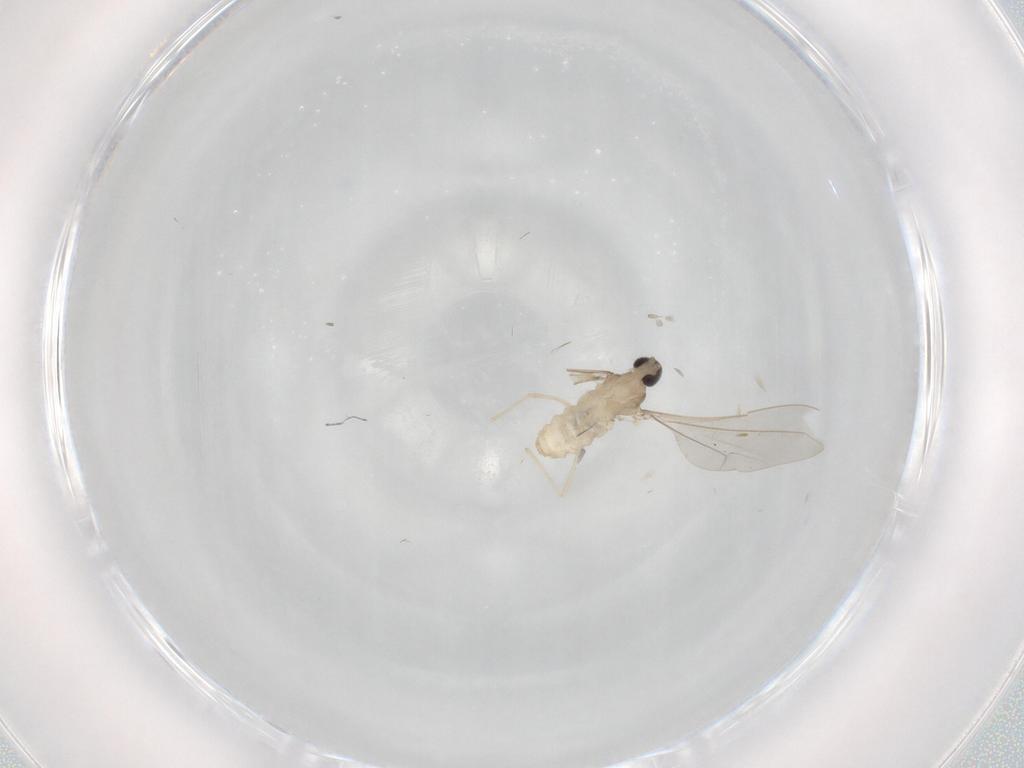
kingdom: Animalia
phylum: Arthropoda
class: Insecta
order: Diptera
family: Cecidomyiidae
